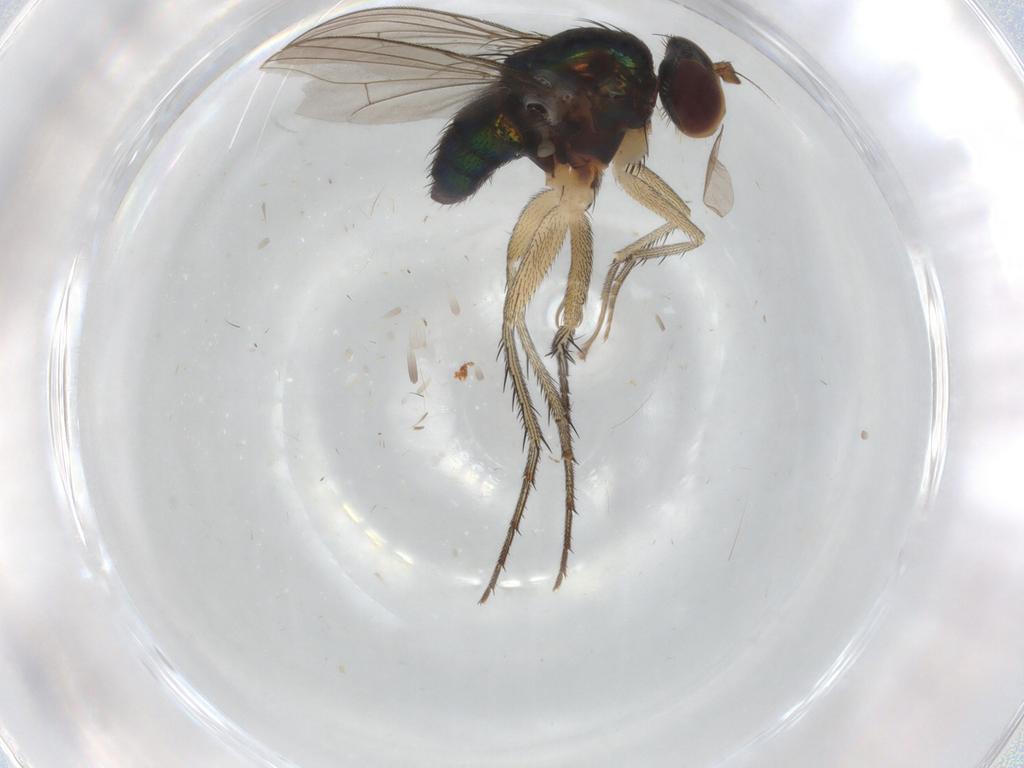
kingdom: Animalia
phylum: Arthropoda
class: Insecta
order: Diptera
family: Dolichopodidae
